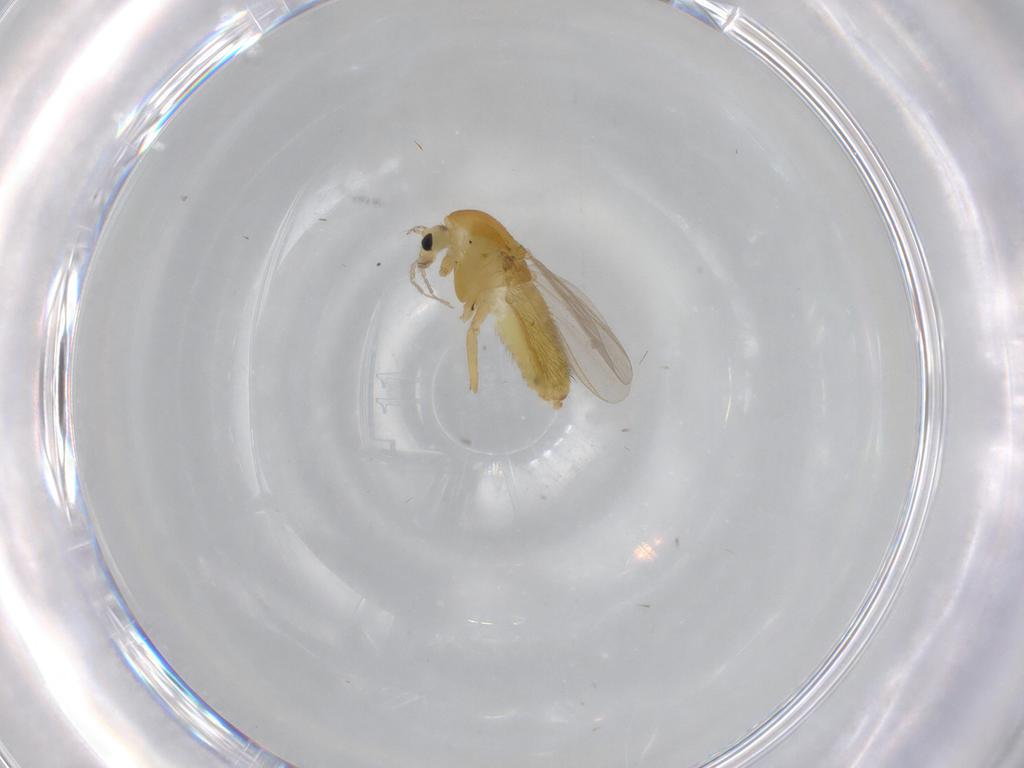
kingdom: Animalia
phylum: Arthropoda
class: Insecta
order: Diptera
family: Chironomidae
